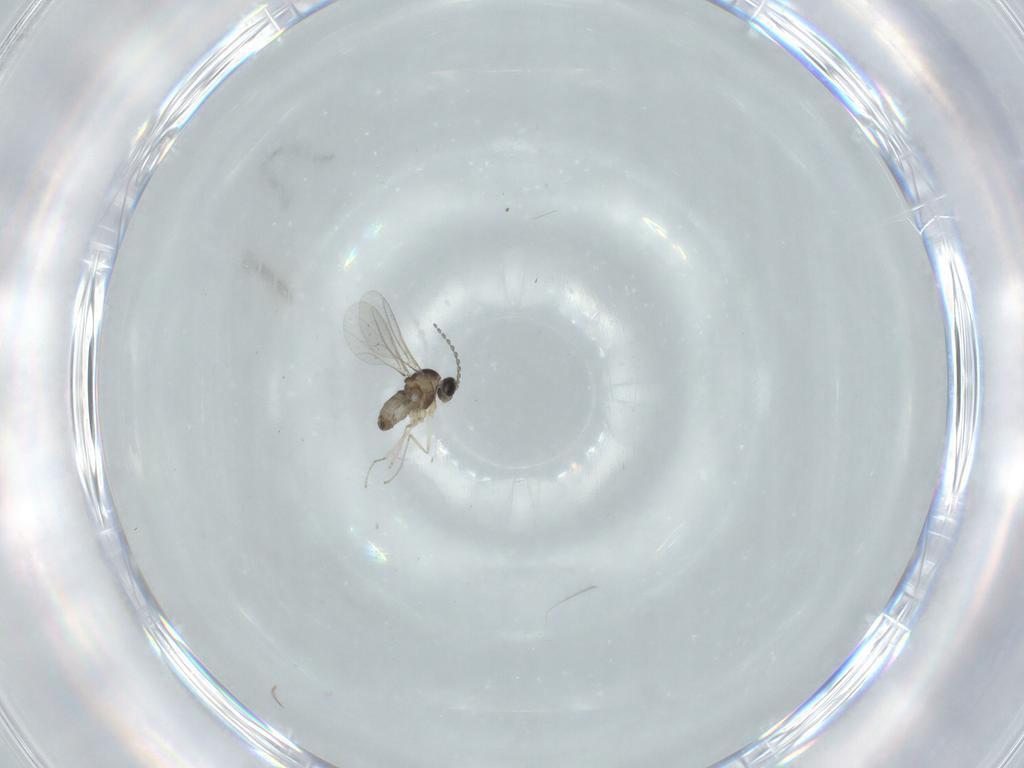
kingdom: Animalia
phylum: Arthropoda
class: Insecta
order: Diptera
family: Cecidomyiidae
